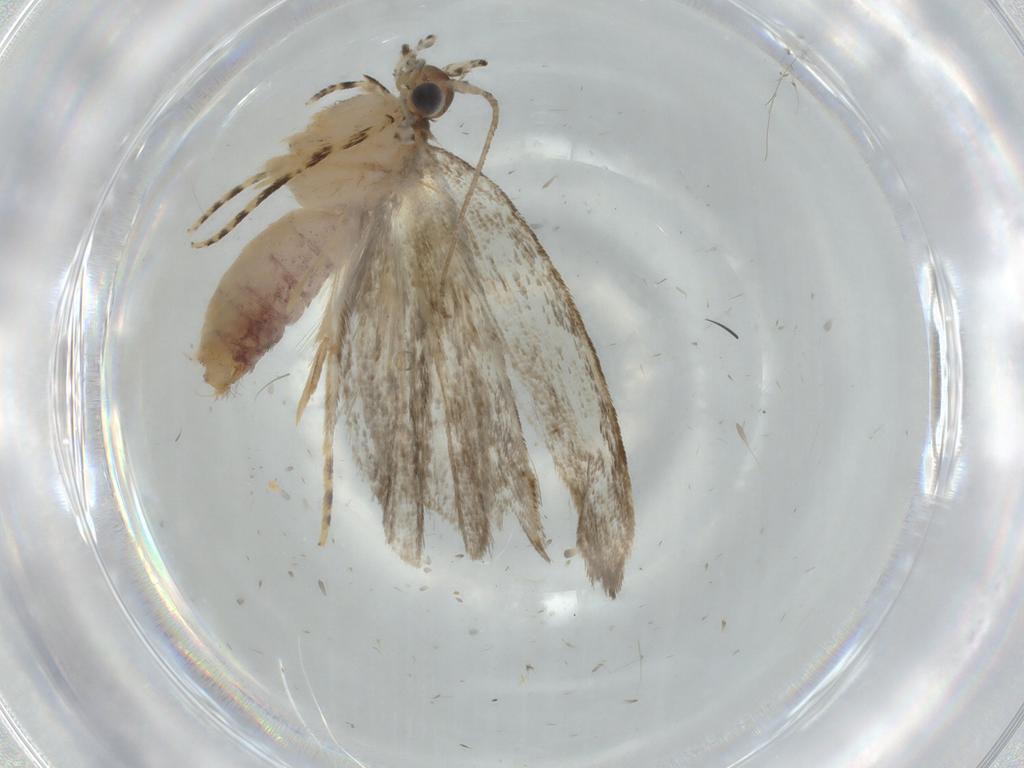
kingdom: Animalia
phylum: Arthropoda
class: Insecta
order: Lepidoptera
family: Tineidae
